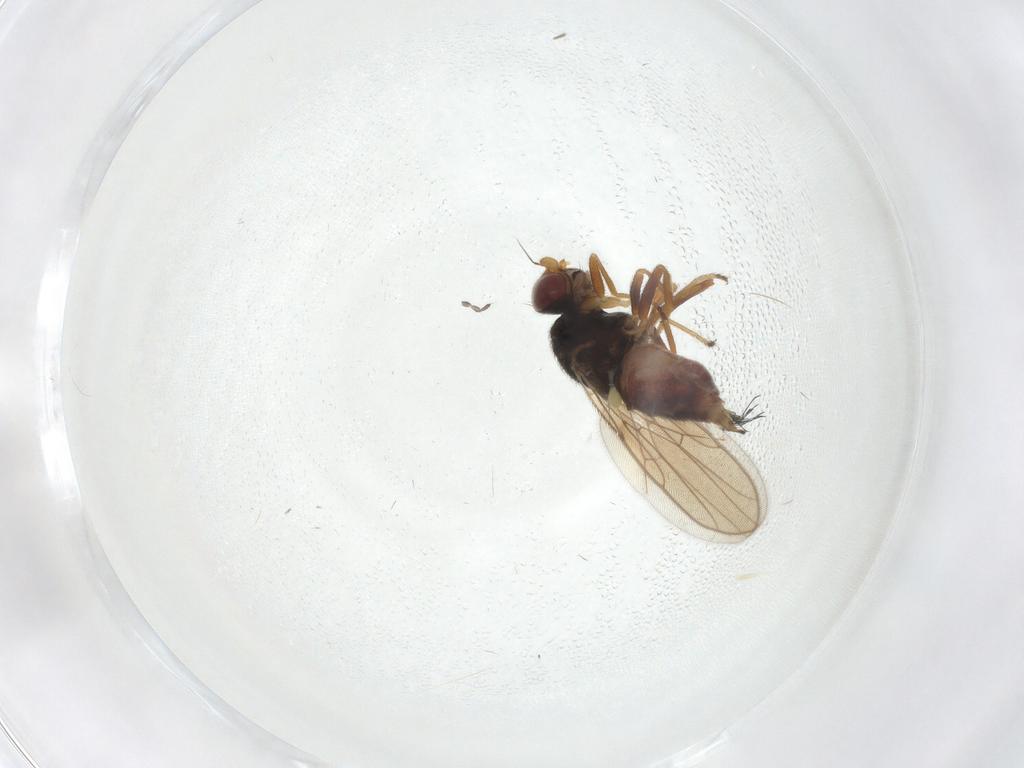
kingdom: Animalia
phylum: Arthropoda
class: Insecta
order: Diptera
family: Chloropidae
